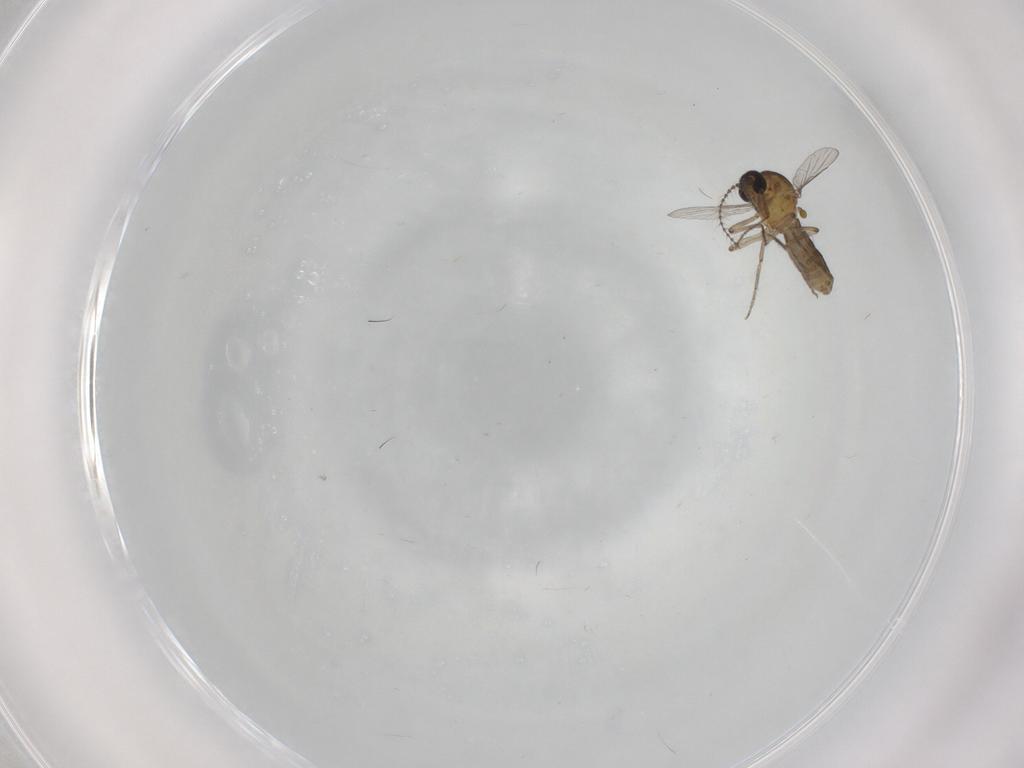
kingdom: Animalia
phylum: Arthropoda
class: Insecta
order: Diptera
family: Ceratopogonidae
